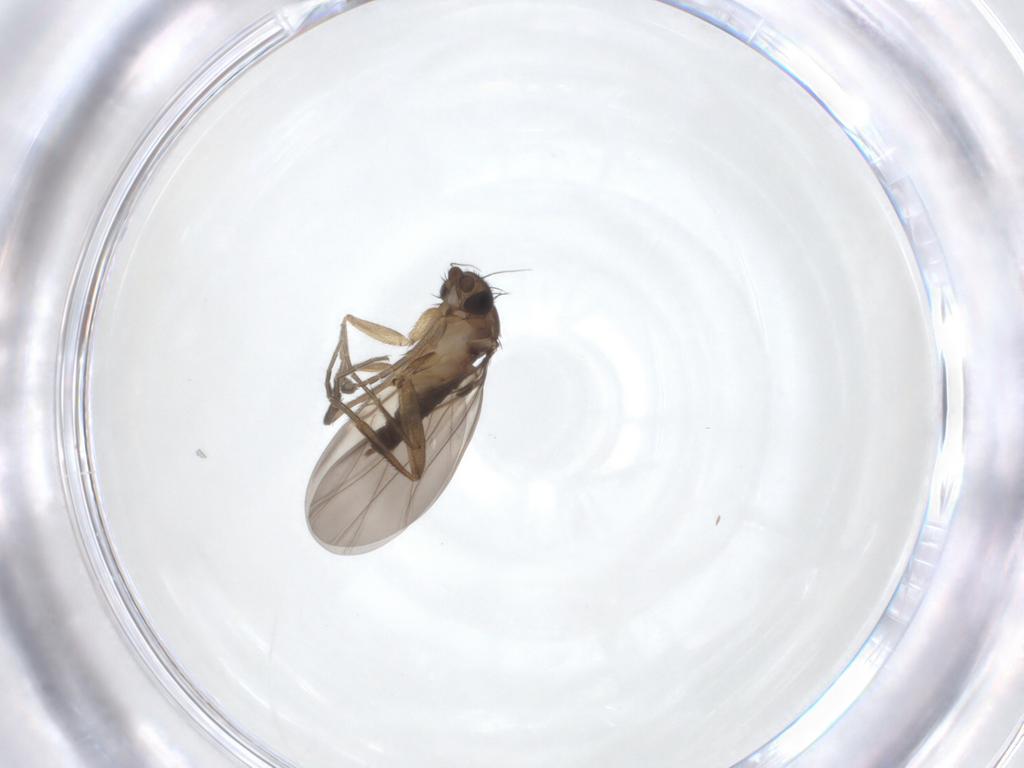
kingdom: Animalia
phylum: Arthropoda
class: Insecta
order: Diptera
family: Phoridae
